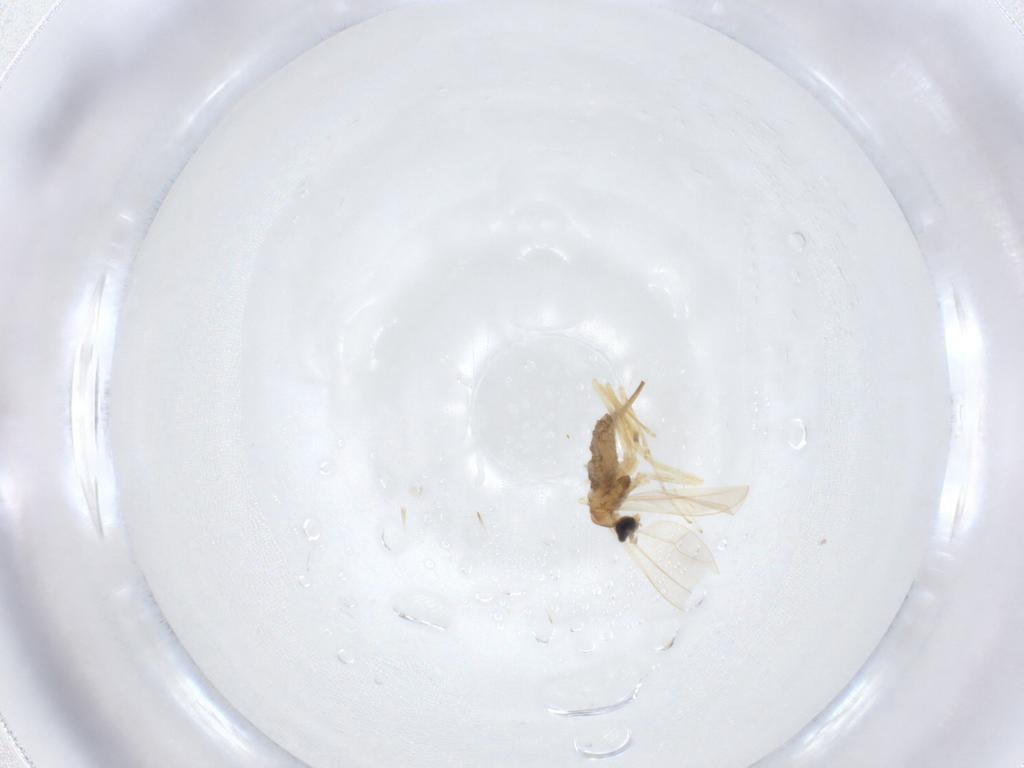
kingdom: Animalia
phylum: Arthropoda
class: Insecta
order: Diptera
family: Cecidomyiidae
